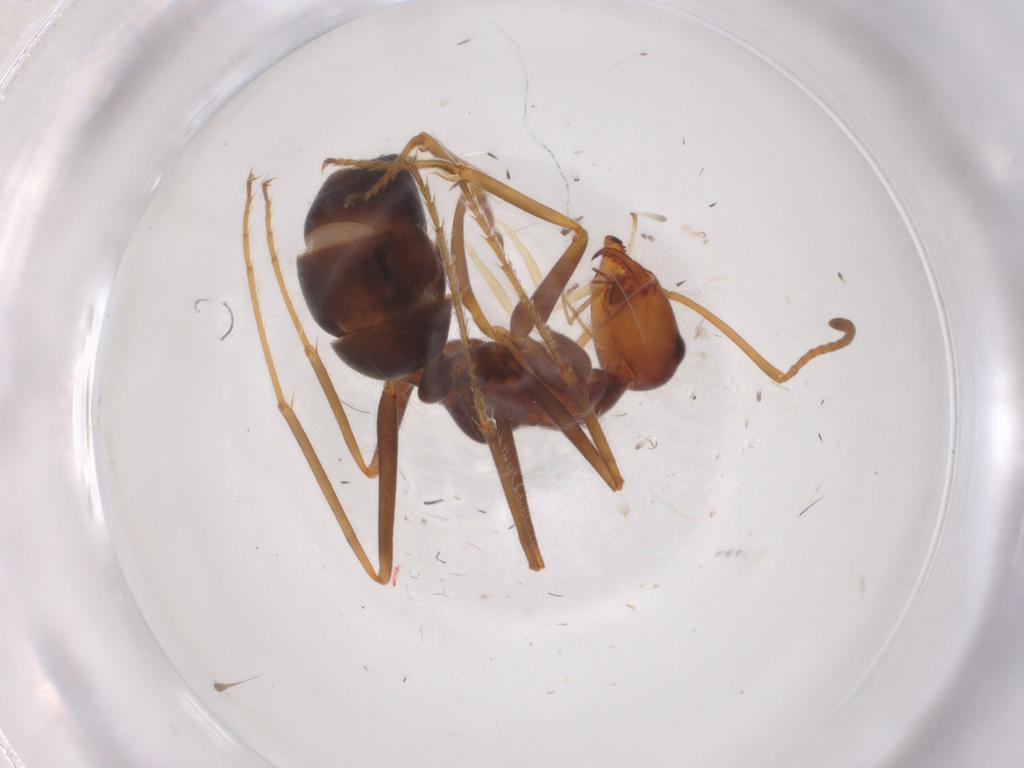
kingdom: Animalia
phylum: Arthropoda
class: Insecta
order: Hymenoptera
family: Formicidae
